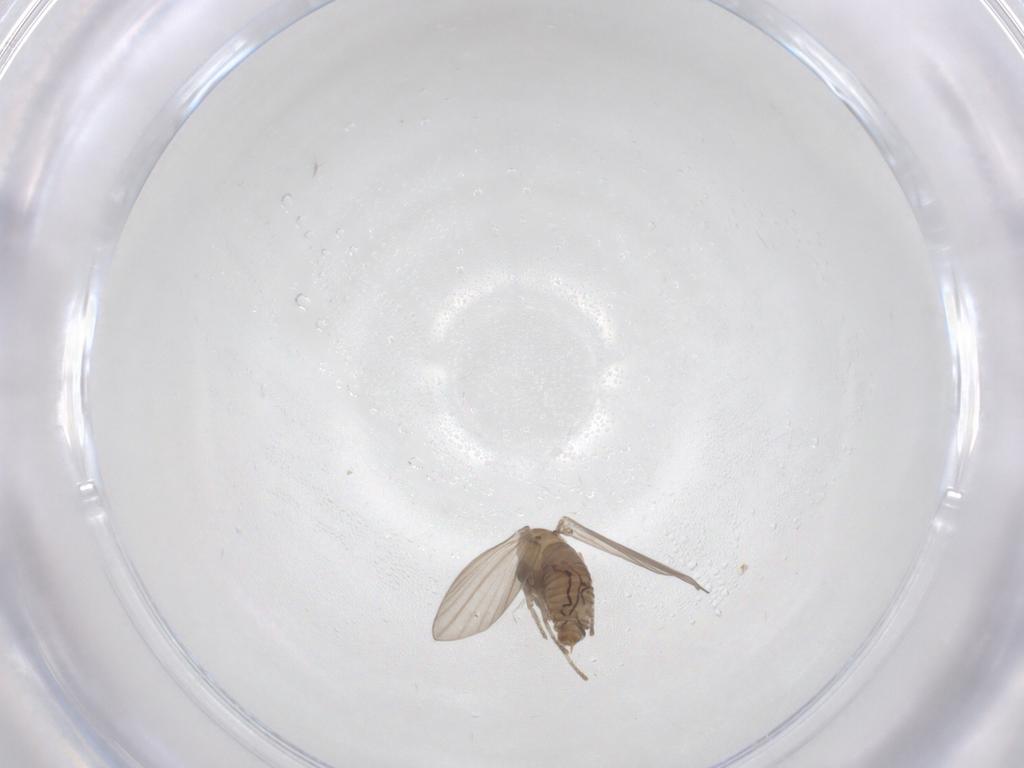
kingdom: Animalia
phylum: Arthropoda
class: Insecta
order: Diptera
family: Psychodidae
